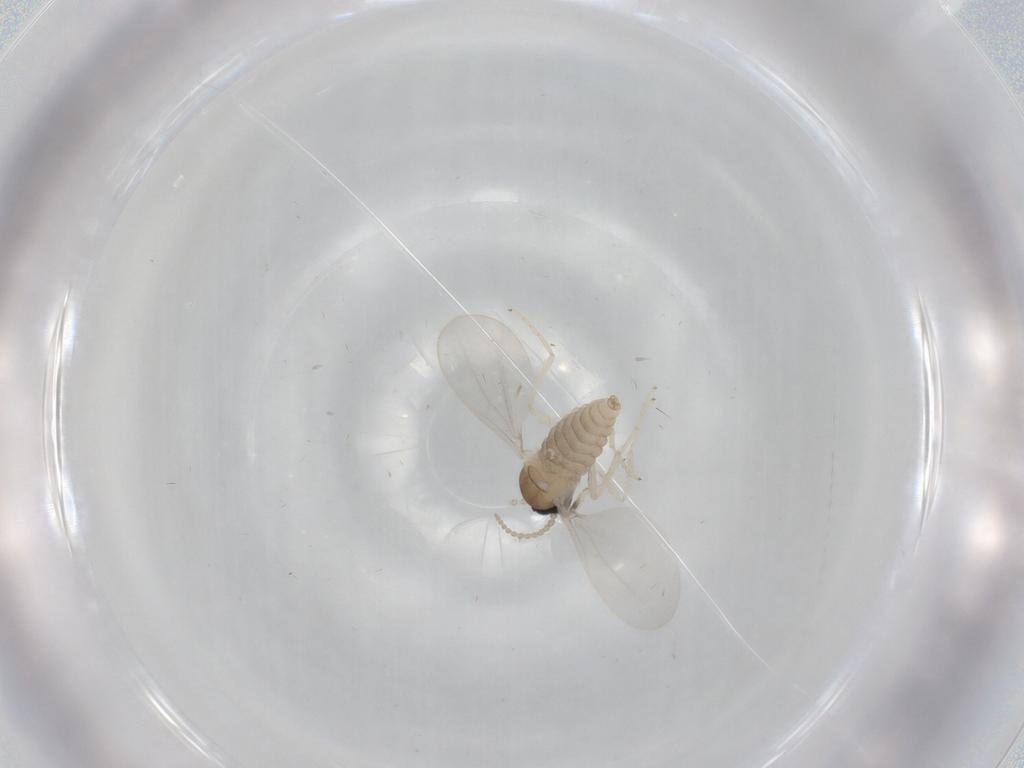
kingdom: Animalia
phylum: Arthropoda
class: Insecta
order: Diptera
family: Cecidomyiidae
